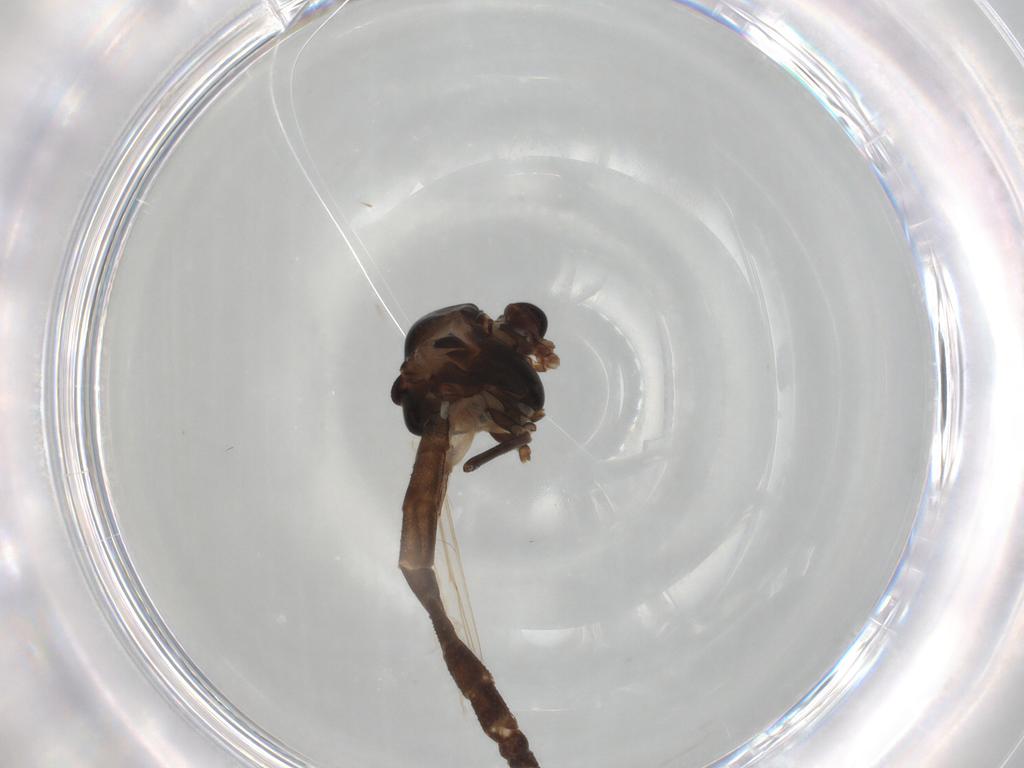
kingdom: Animalia
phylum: Arthropoda
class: Insecta
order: Diptera
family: Chironomidae
